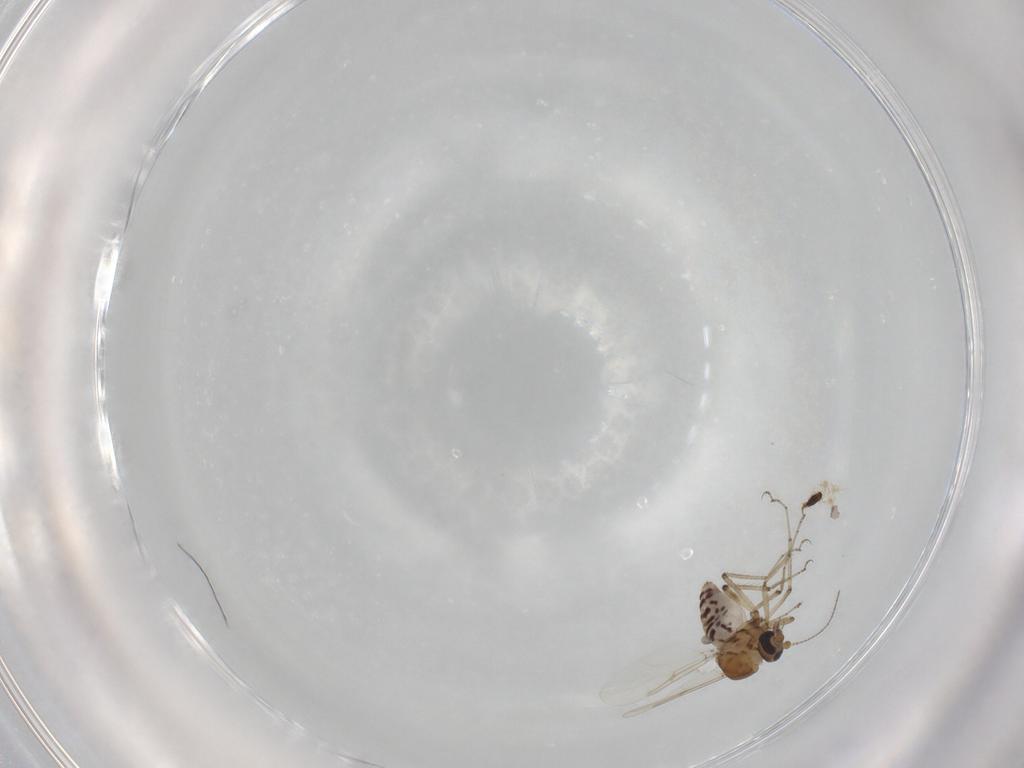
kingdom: Animalia
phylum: Arthropoda
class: Insecta
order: Diptera
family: Ceratopogonidae
